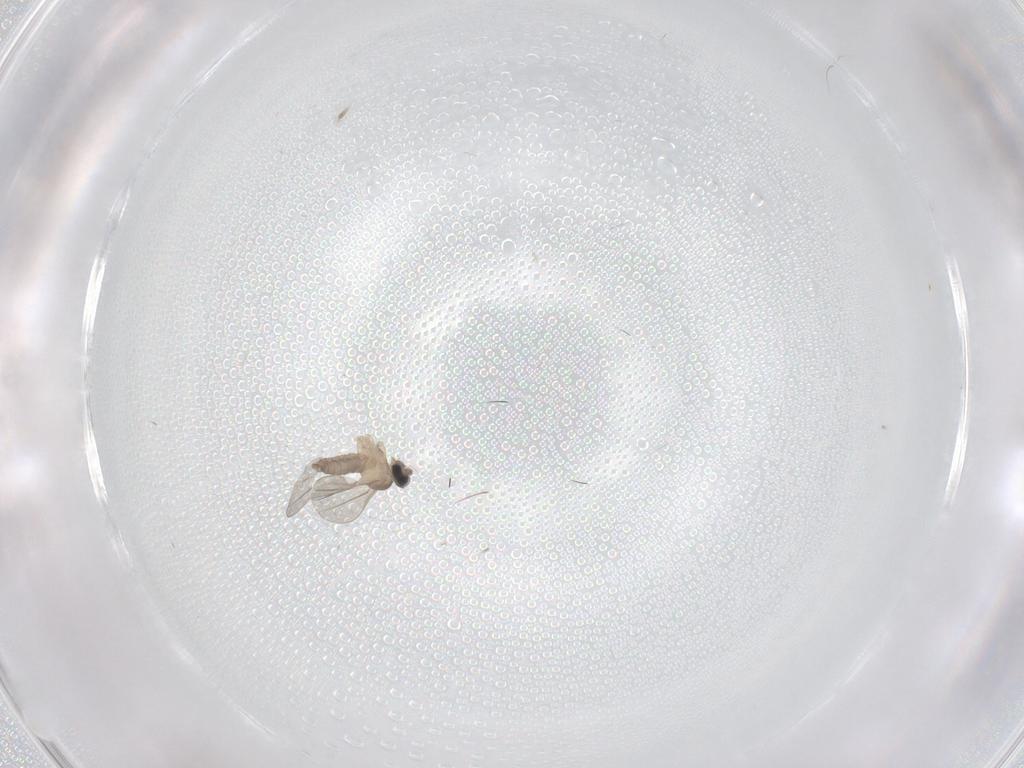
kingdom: Animalia
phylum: Arthropoda
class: Insecta
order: Diptera
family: Cecidomyiidae
